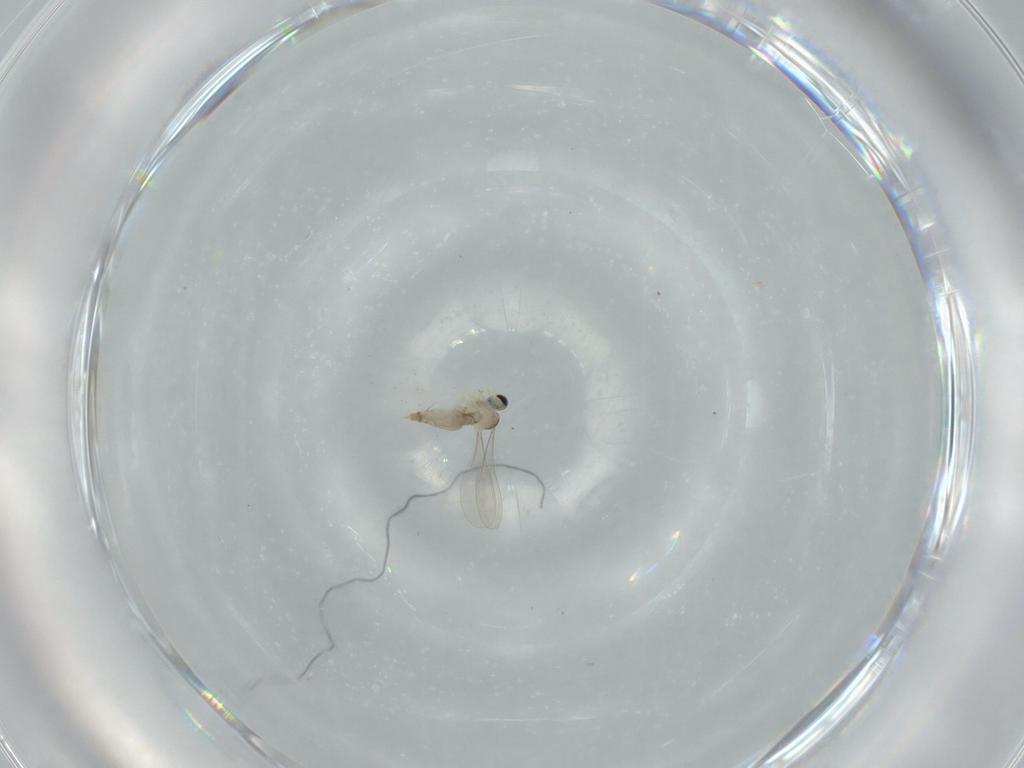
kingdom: Animalia
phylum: Arthropoda
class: Insecta
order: Diptera
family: Drosophilidae
